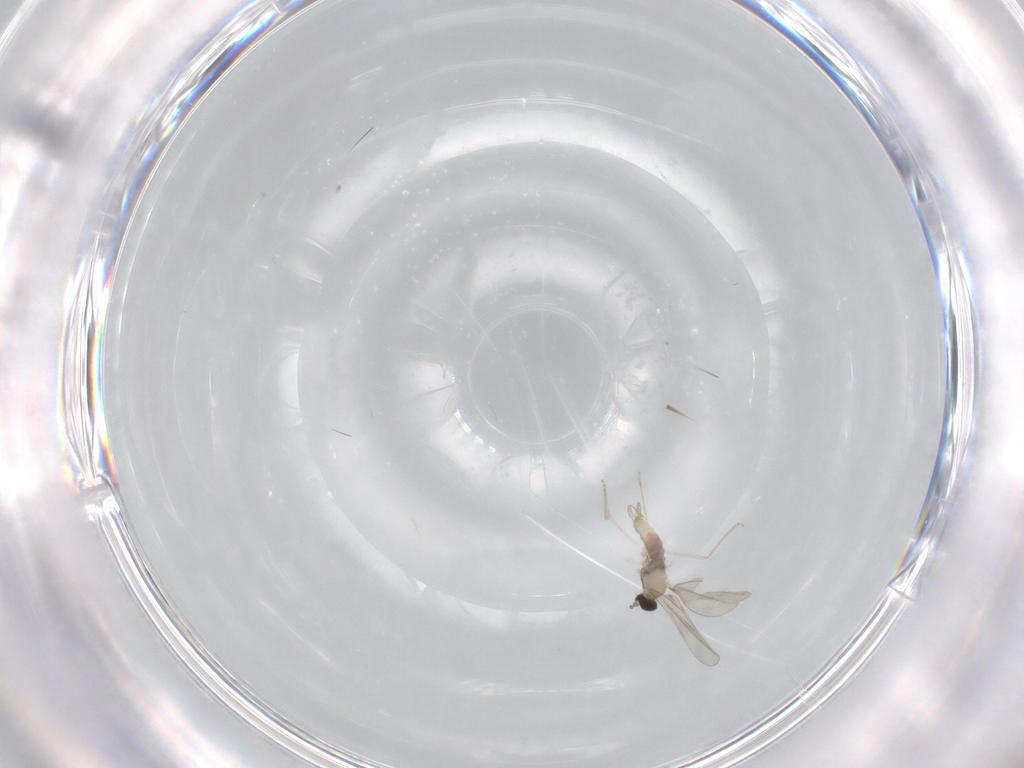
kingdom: Animalia
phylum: Arthropoda
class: Insecta
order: Diptera
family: Cecidomyiidae
